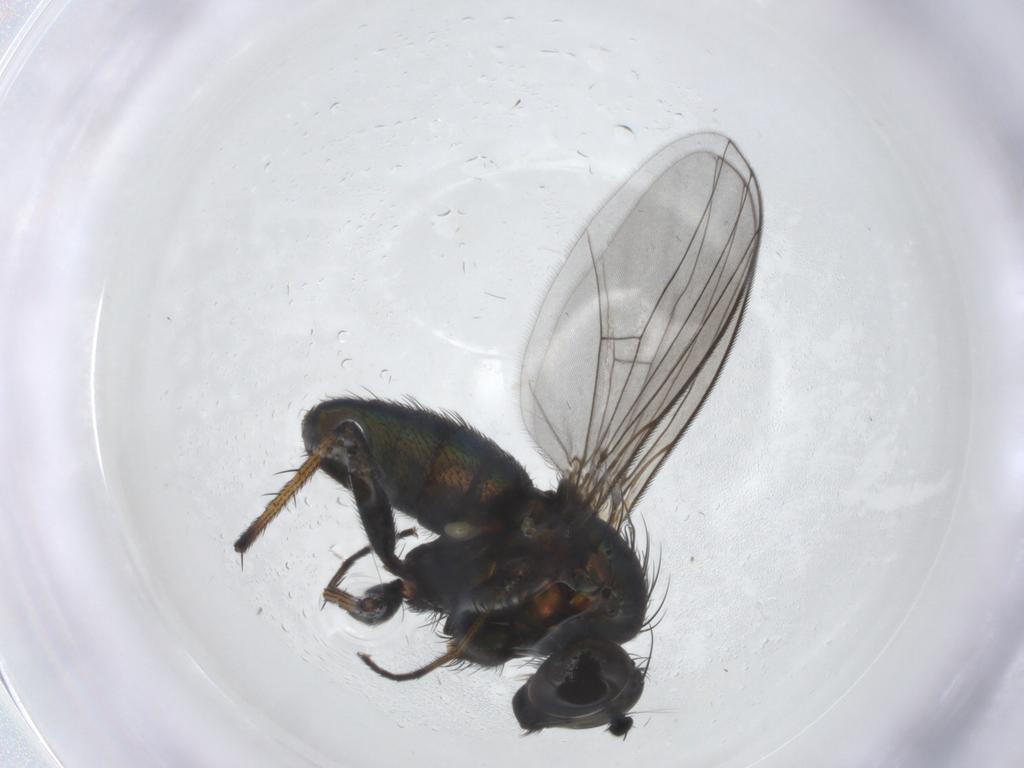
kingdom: Animalia
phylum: Arthropoda
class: Insecta
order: Diptera
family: Dolichopodidae
